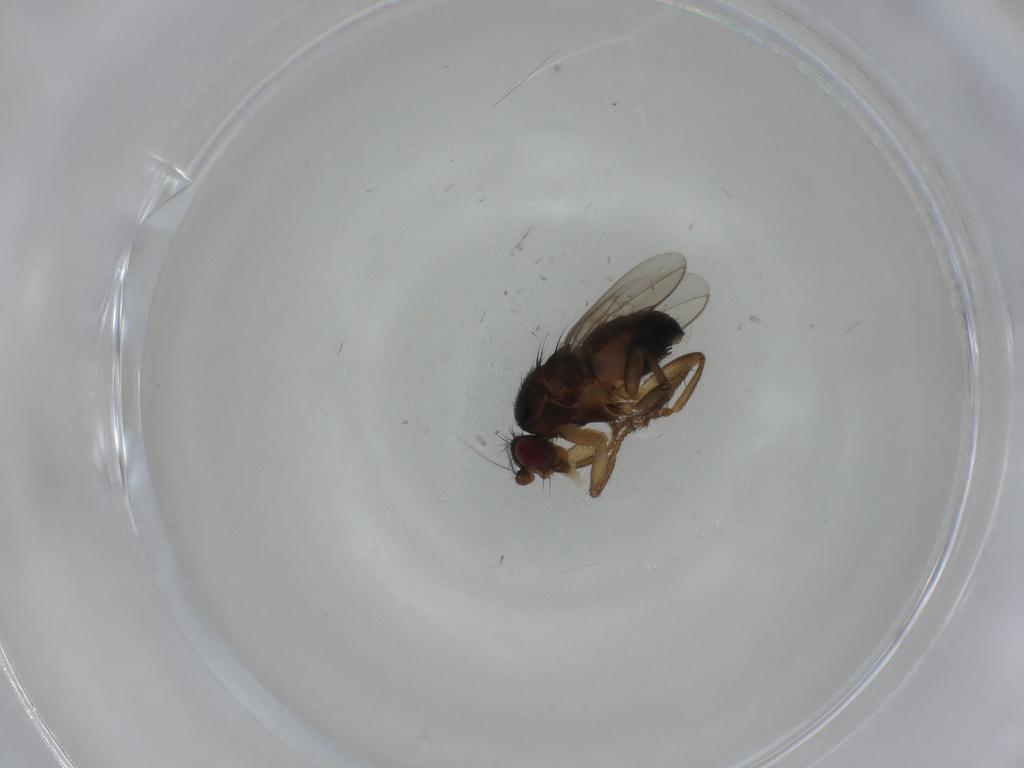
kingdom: Animalia
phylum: Arthropoda
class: Insecta
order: Diptera
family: Sphaeroceridae
